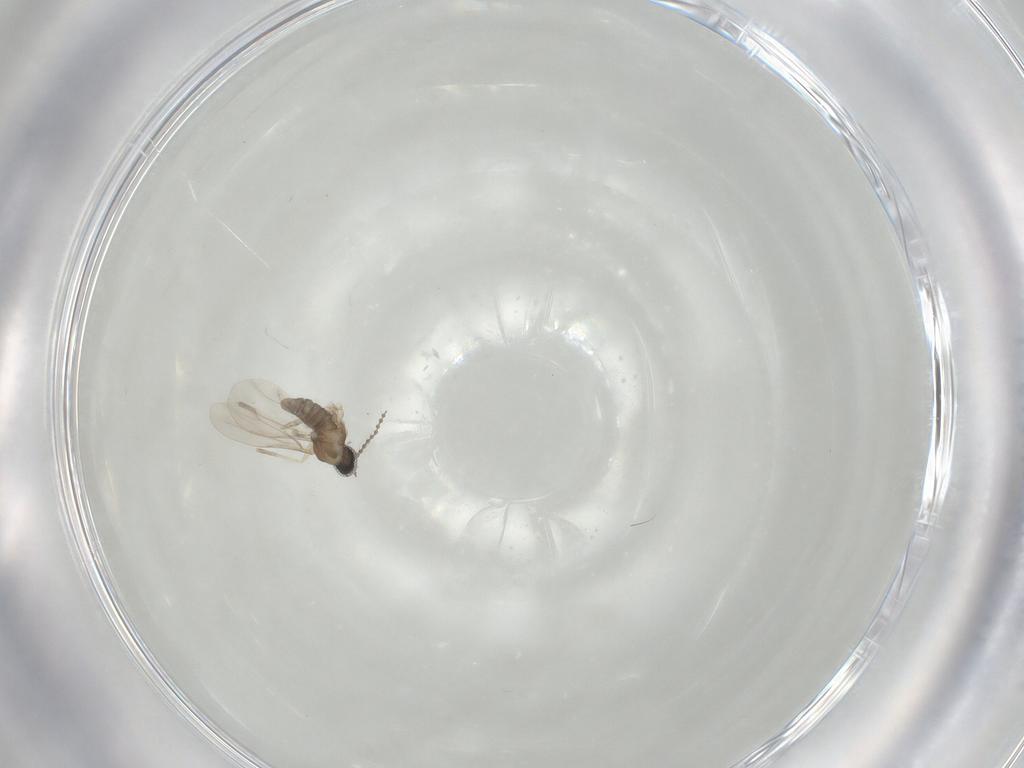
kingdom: Animalia
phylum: Arthropoda
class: Insecta
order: Diptera
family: Cecidomyiidae
